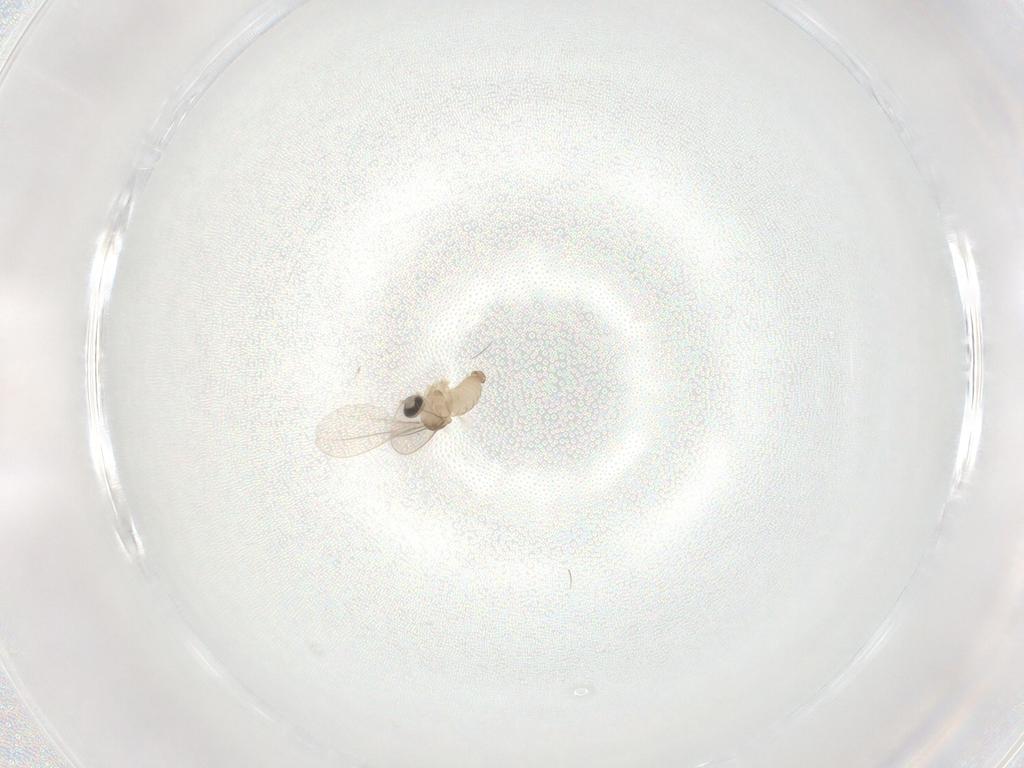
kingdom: Animalia
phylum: Arthropoda
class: Insecta
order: Diptera
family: Cecidomyiidae
